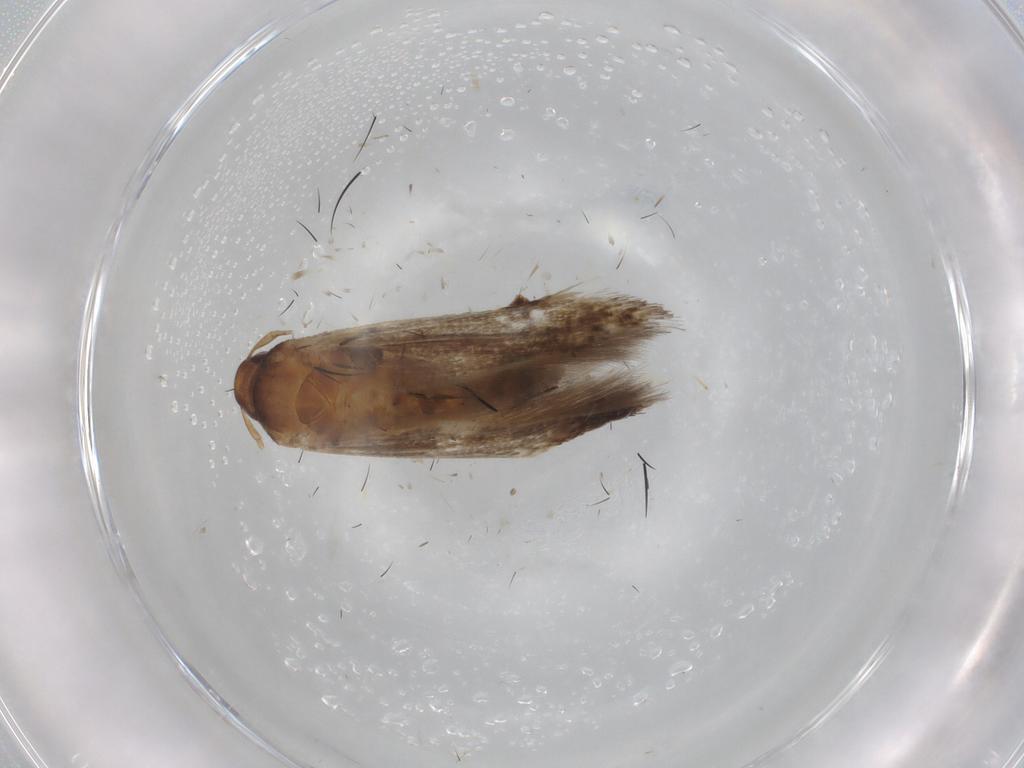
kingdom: Animalia
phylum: Arthropoda
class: Insecta
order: Lepidoptera
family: Cosmopterigidae
